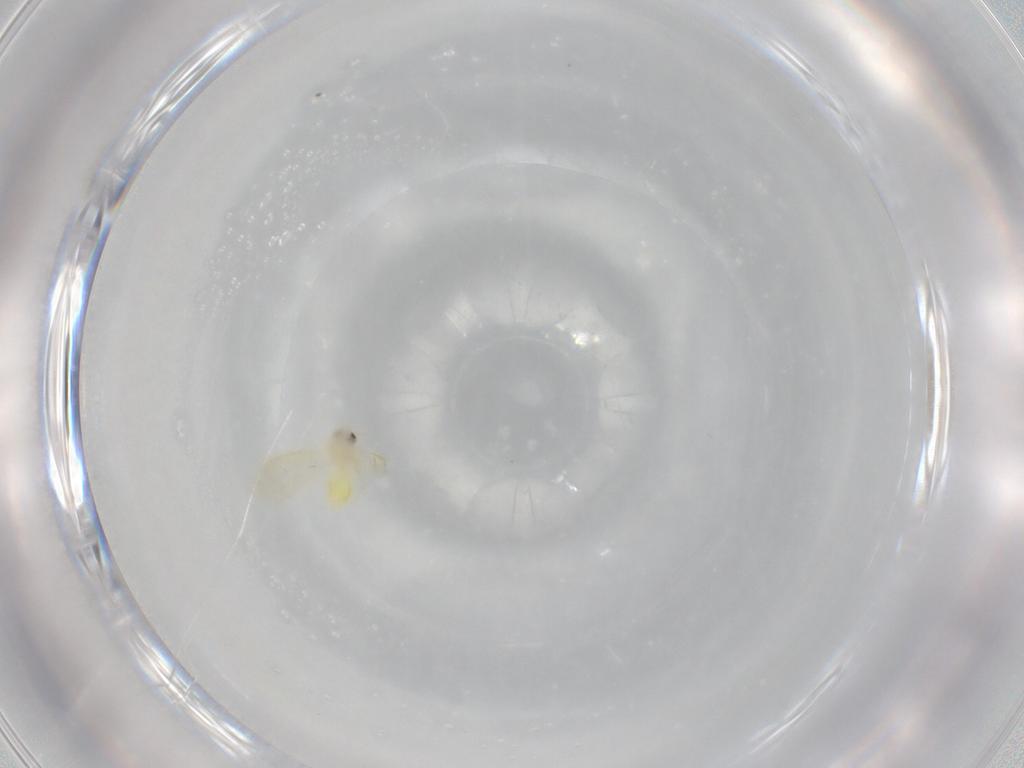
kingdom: Animalia
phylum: Arthropoda
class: Insecta
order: Hemiptera
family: Aleyrodidae
